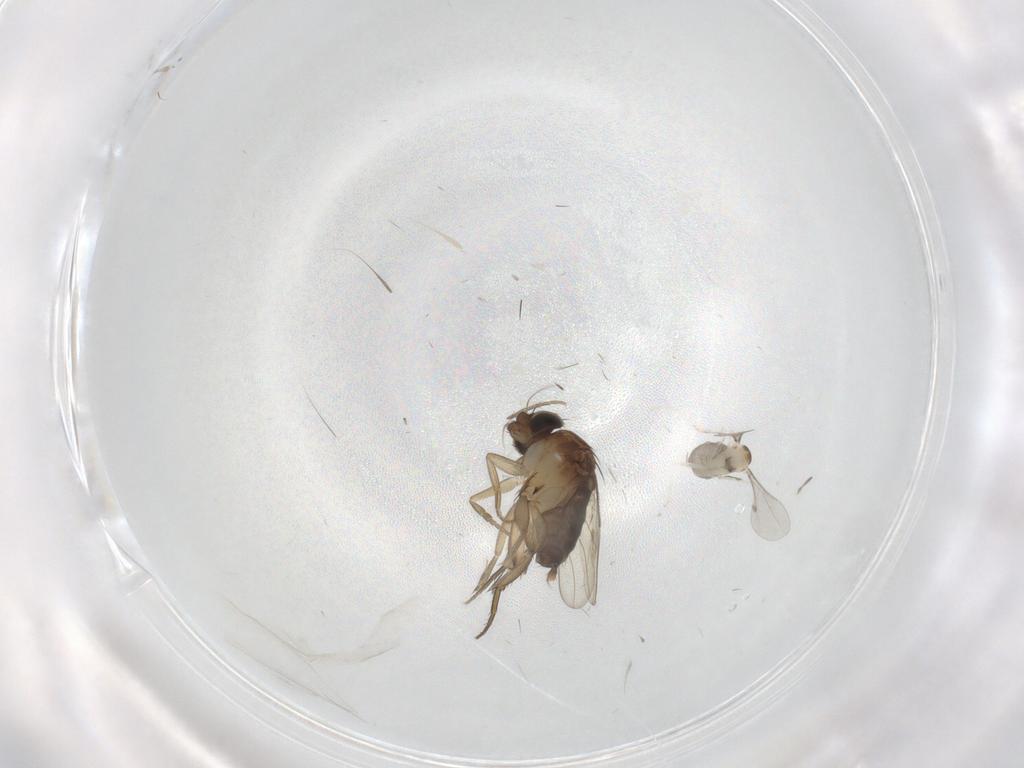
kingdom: Animalia
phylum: Arthropoda
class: Insecta
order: Diptera
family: Cecidomyiidae
